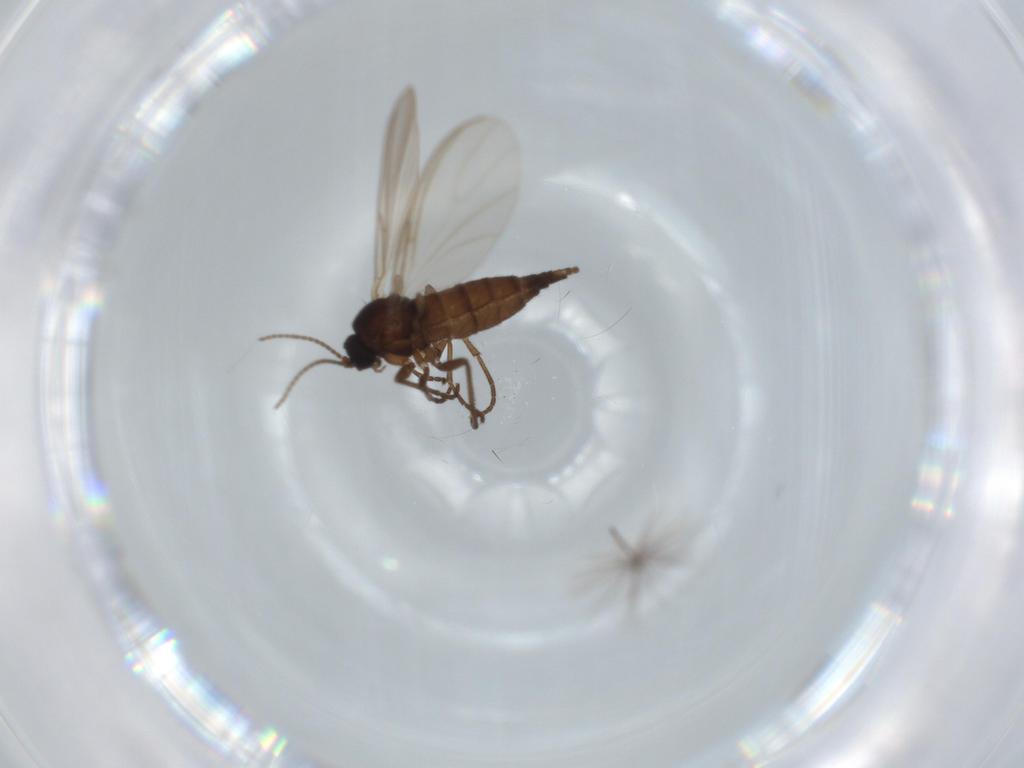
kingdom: Animalia
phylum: Arthropoda
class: Insecta
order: Diptera
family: Sciaridae
